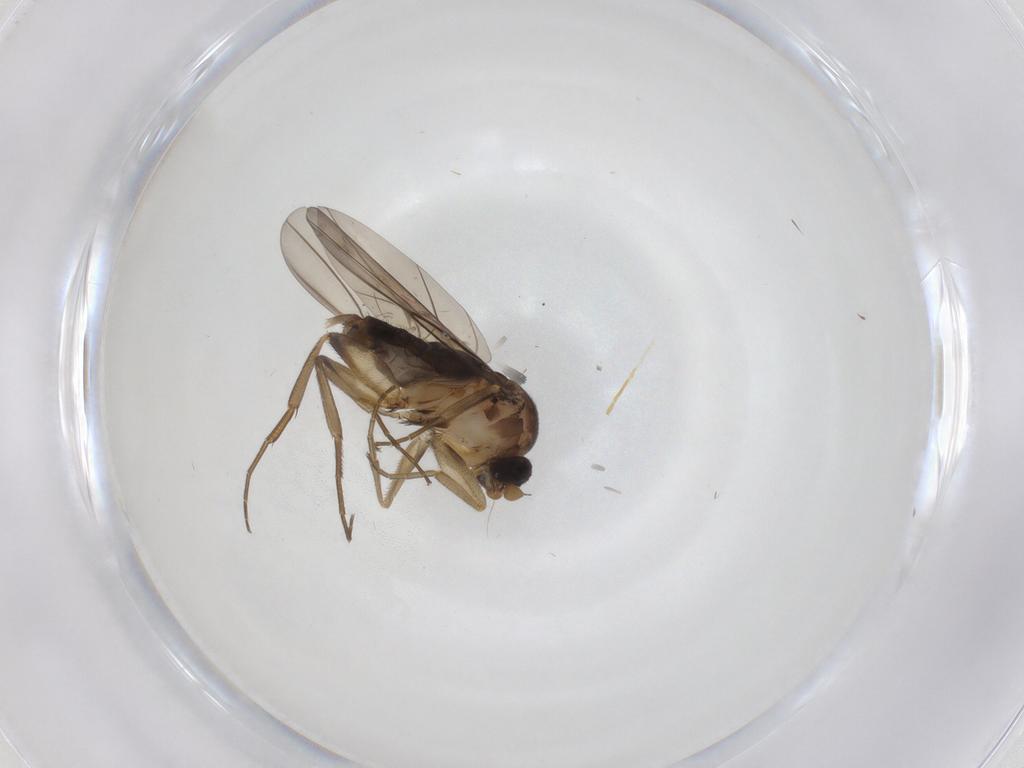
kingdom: Animalia
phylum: Arthropoda
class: Insecta
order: Diptera
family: Phoridae
